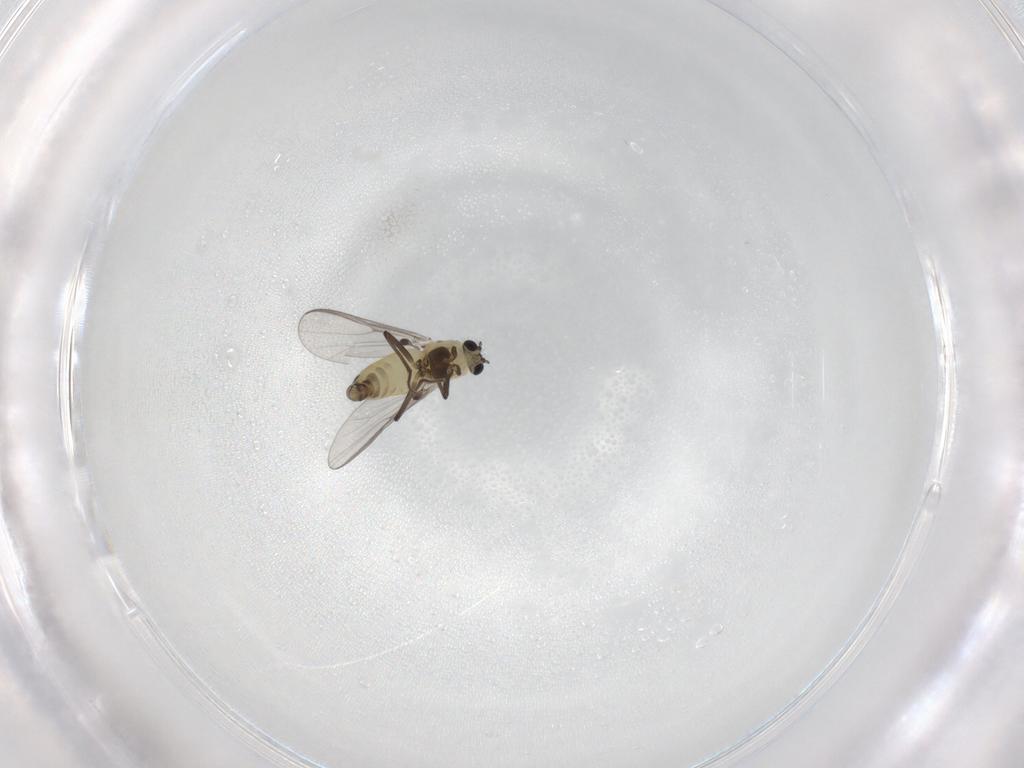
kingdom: Animalia
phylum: Arthropoda
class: Insecta
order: Diptera
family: Chironomidae
